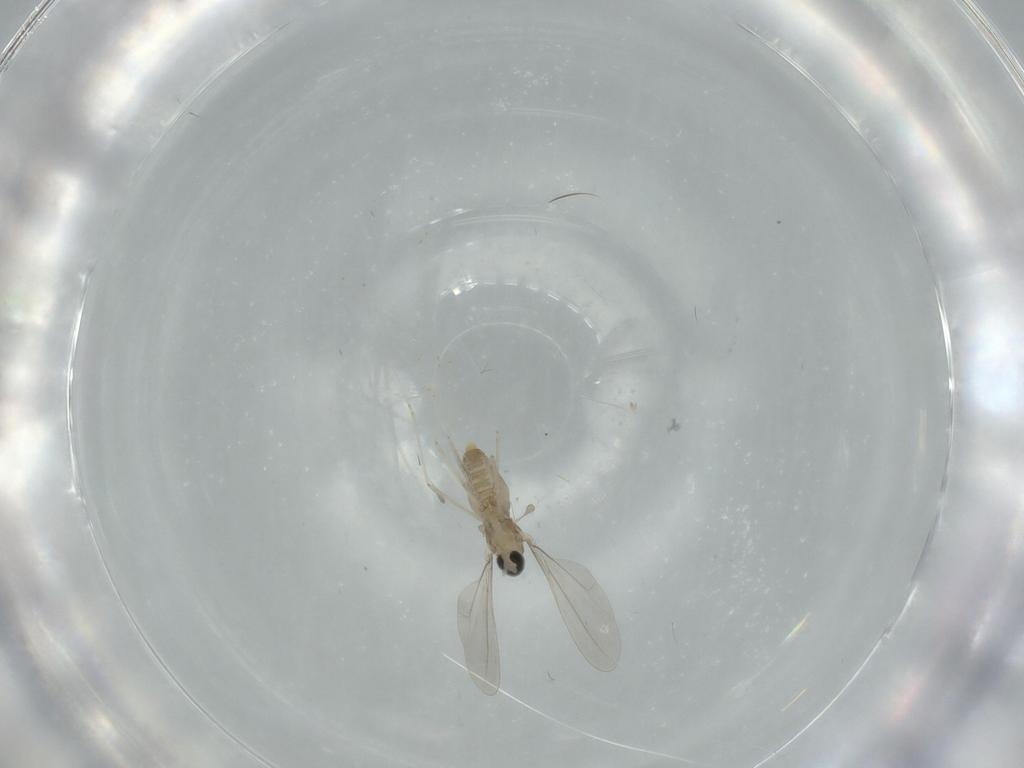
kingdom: Animalia
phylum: Arthropoda
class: Insecta
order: Diptera
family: Cecidomyiidae
